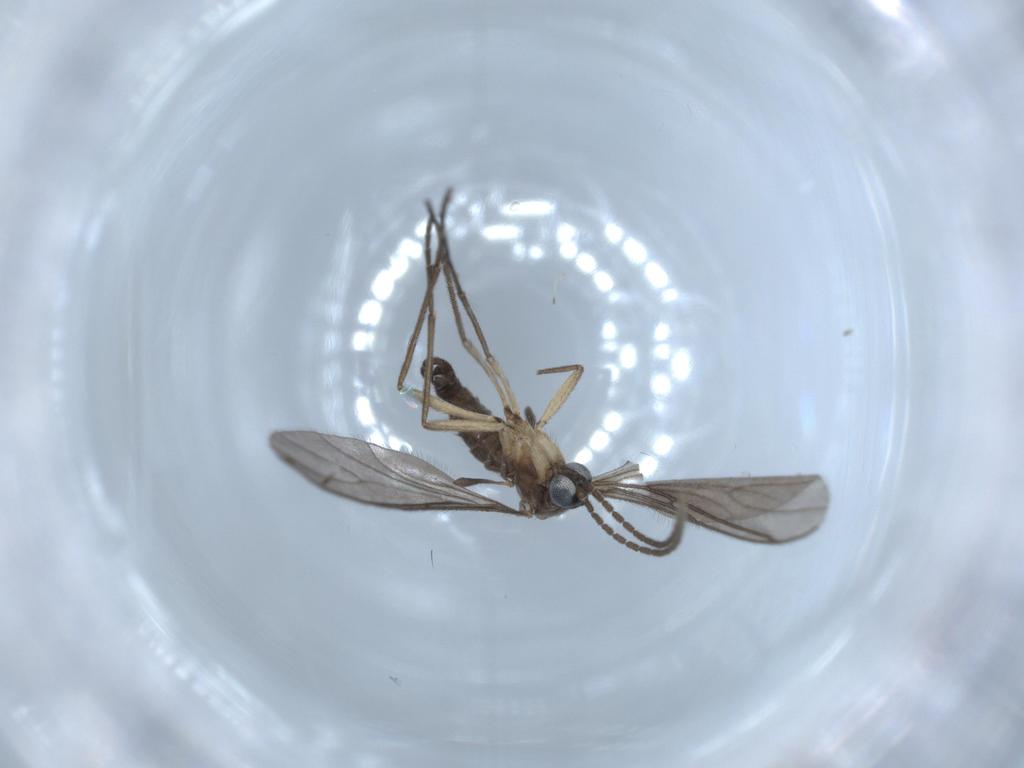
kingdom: Animalia
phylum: Arthropoda
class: Insecta
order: Diptera
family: Sciaridae
